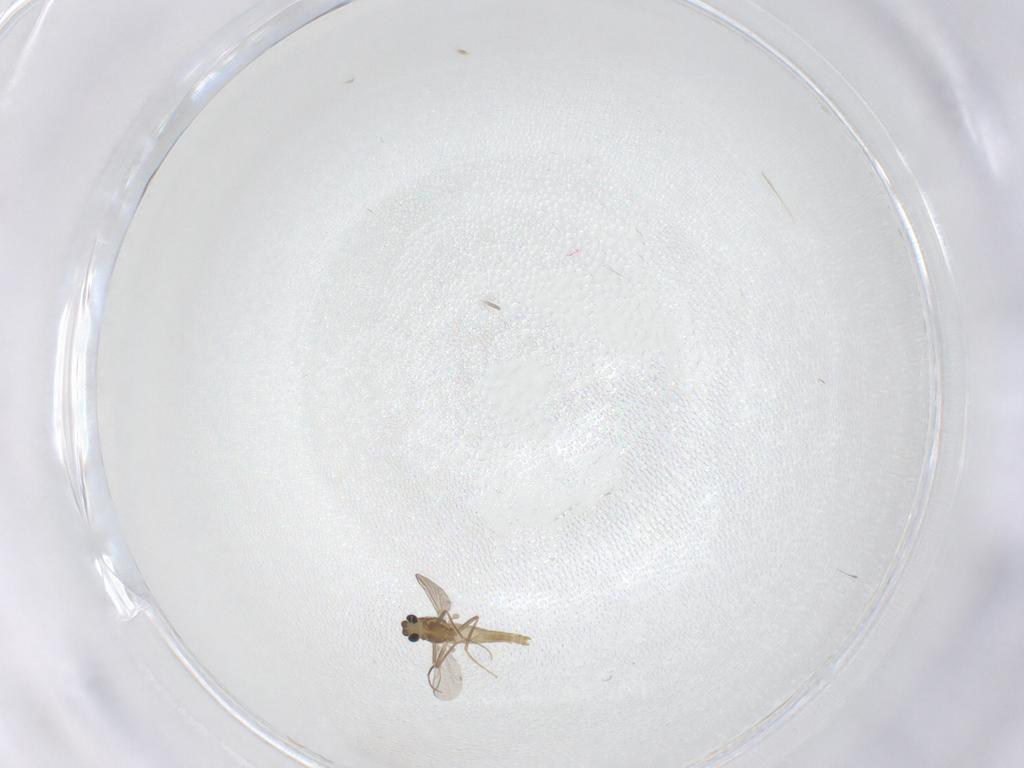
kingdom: Animalia
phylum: Arthropoda
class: Insecta
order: Diptera
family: Chironomidae
